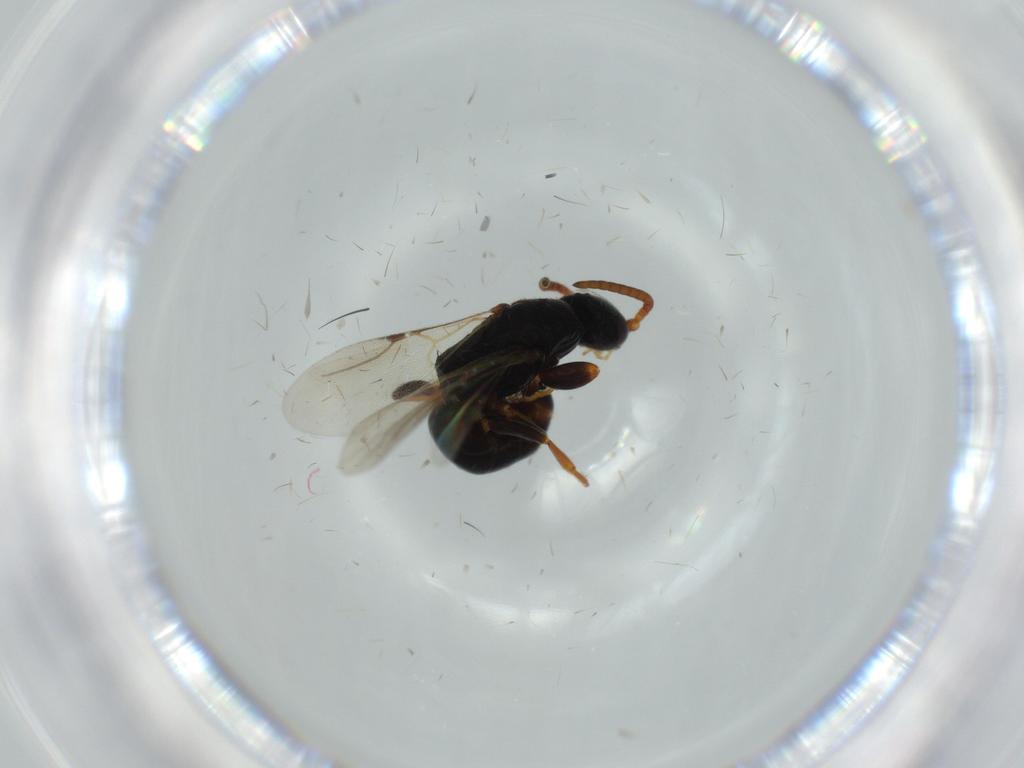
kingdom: Animalia
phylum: Arthropoda
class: Insecta
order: Hymenoptera
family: Bethylidae
